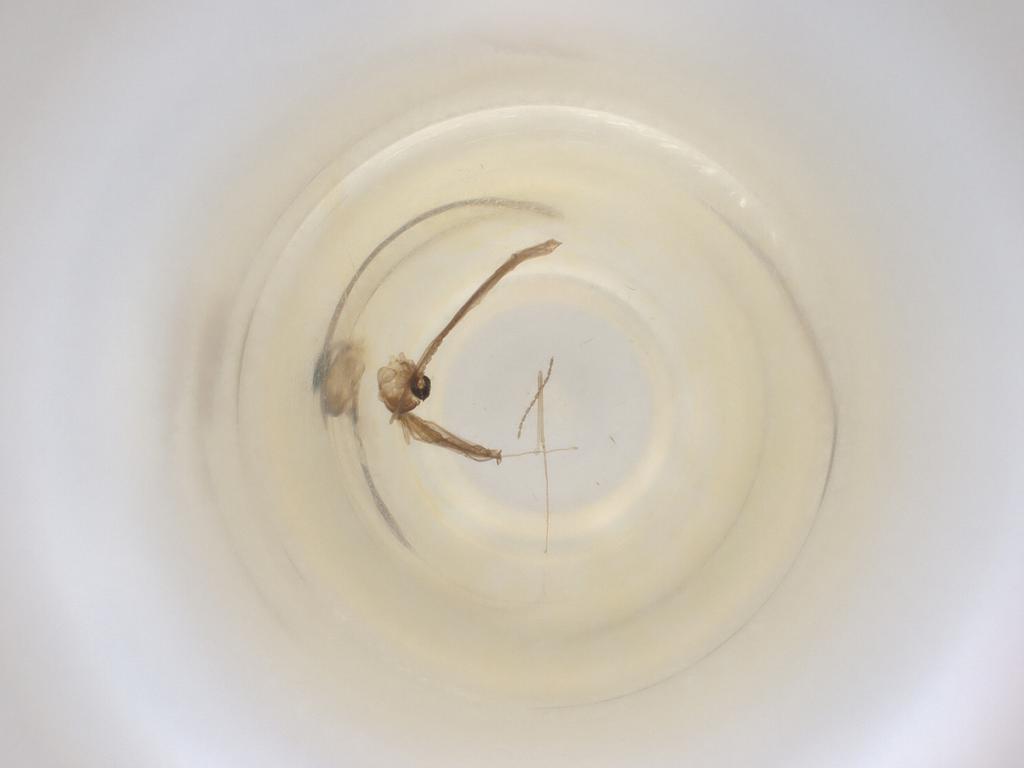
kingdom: Animalia
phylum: Arthropoda
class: Insecta
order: Diptera
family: Cecidomyiidae
